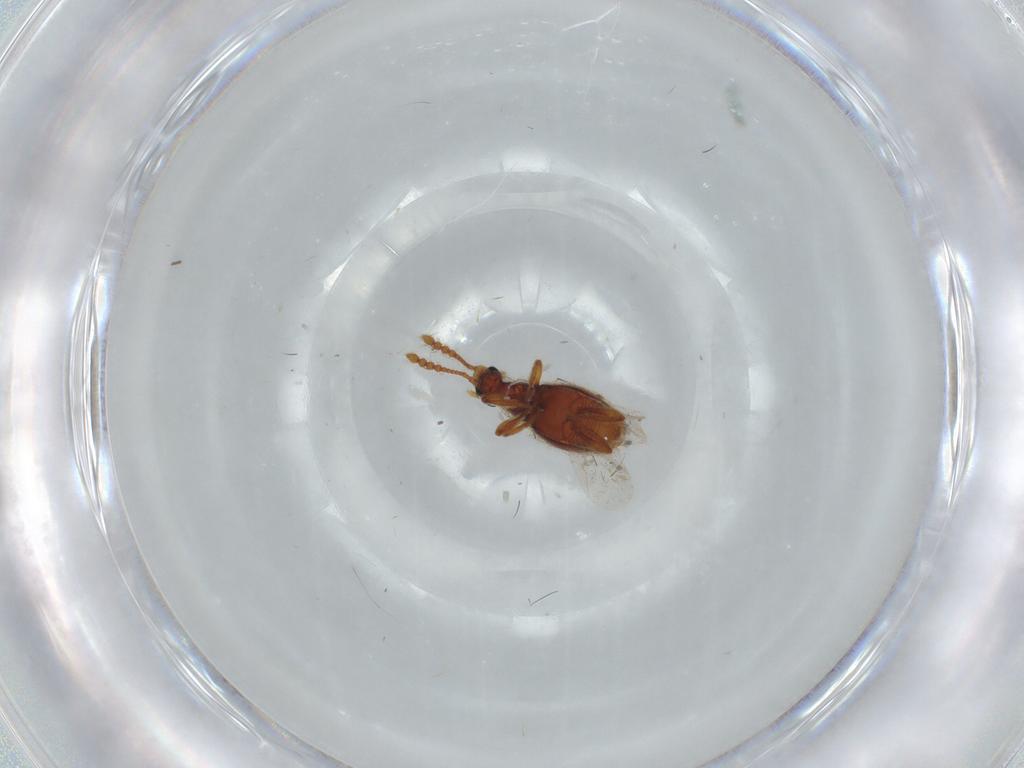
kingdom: Animalia
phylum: Arthropoda
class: Insecta
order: Coleoptera
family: Staphylinidae
